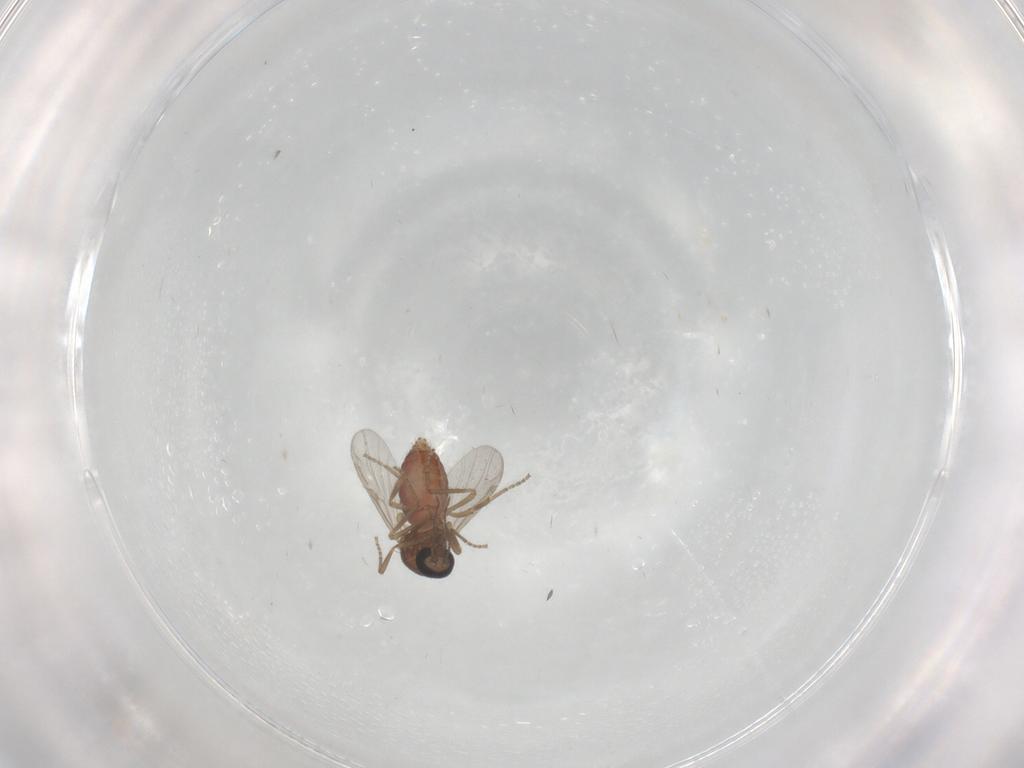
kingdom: Animalia
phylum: Arthropoda
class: Insecta
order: Diptera
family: Ceratopogonidae
